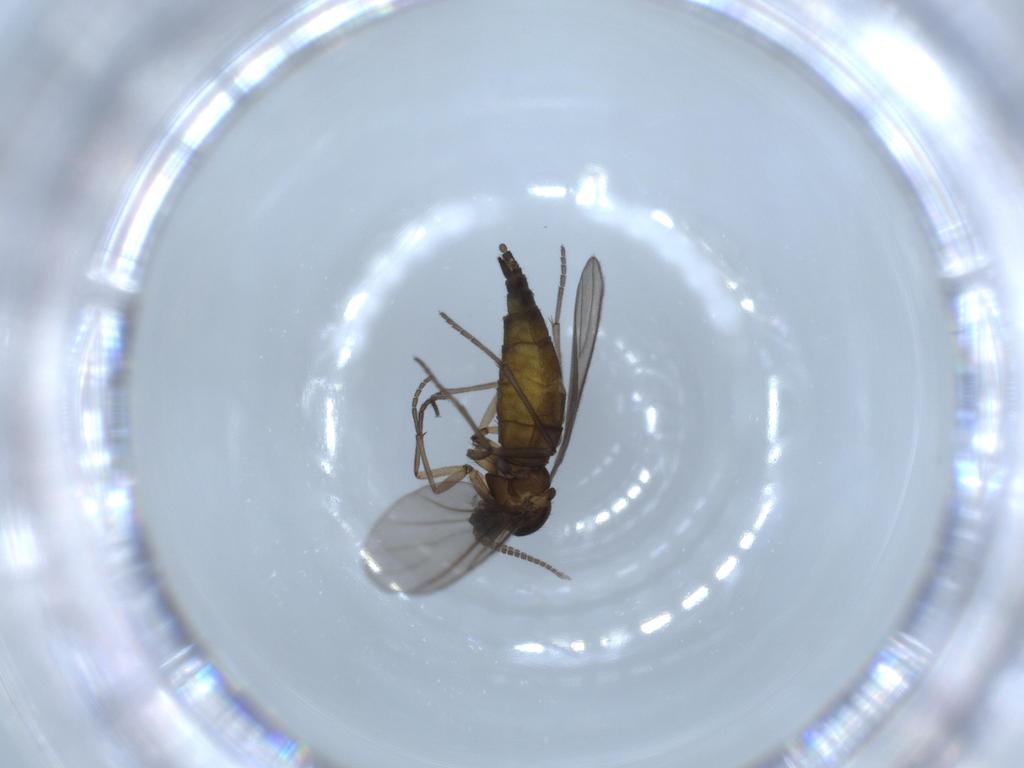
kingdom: Animalia
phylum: Arthropoda
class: Insecta
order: Diptera
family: Sciaridae
